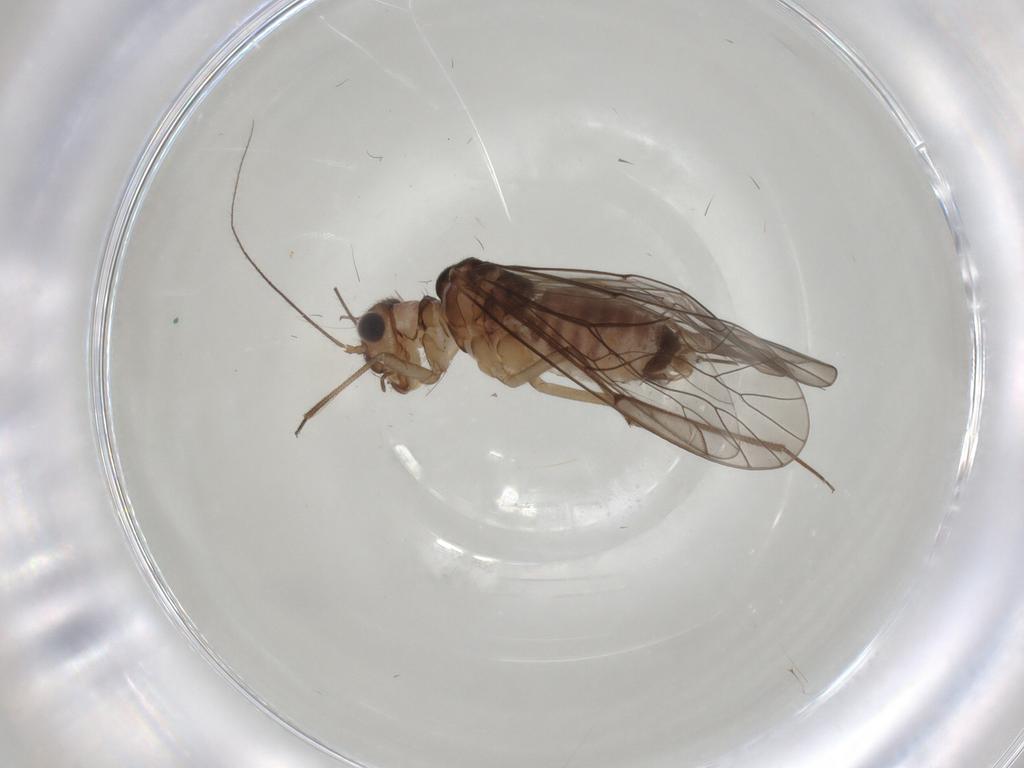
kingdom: Animalia
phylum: Arthropoda
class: Insecta
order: Psocodea
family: Lachesillidae
